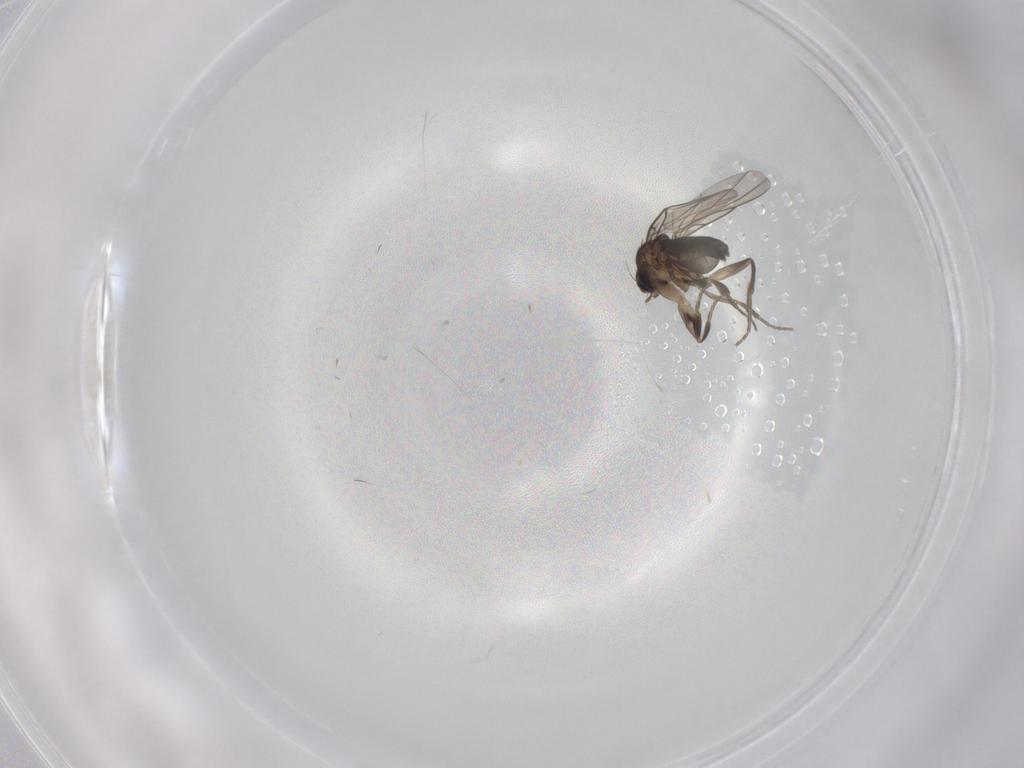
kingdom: Animalia
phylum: Arthropoda
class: Insecta
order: Diptera
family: Phoridae
